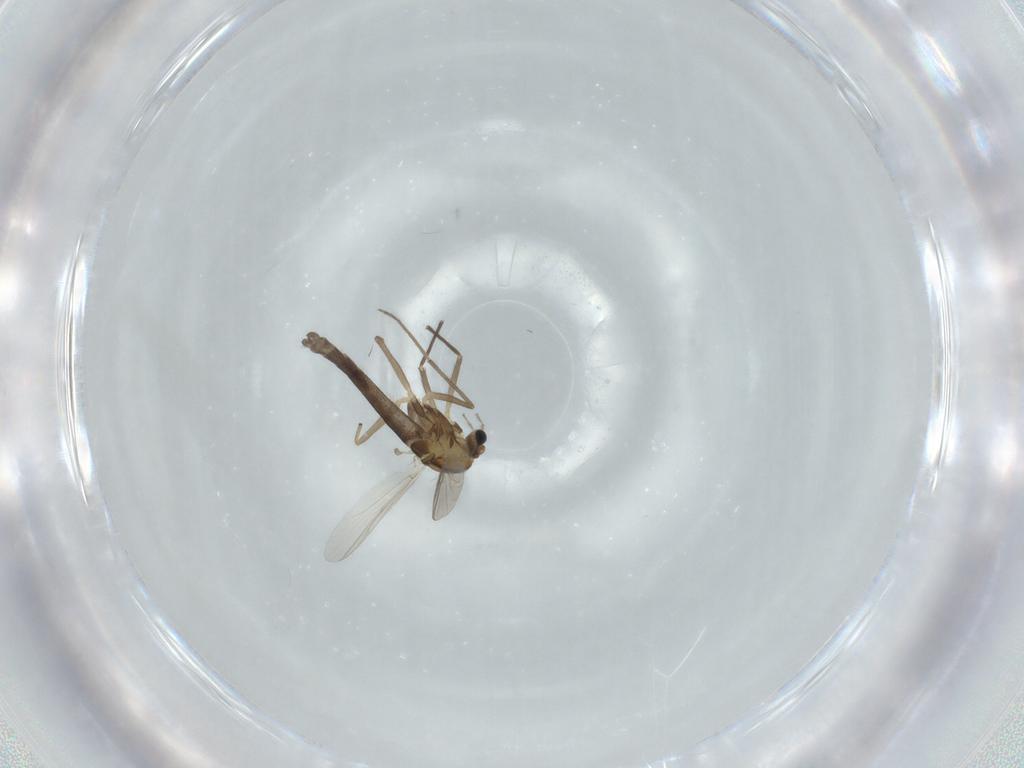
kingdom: Animalia
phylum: Arthropoda
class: Insecta
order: Diptera
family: Chironomidae
